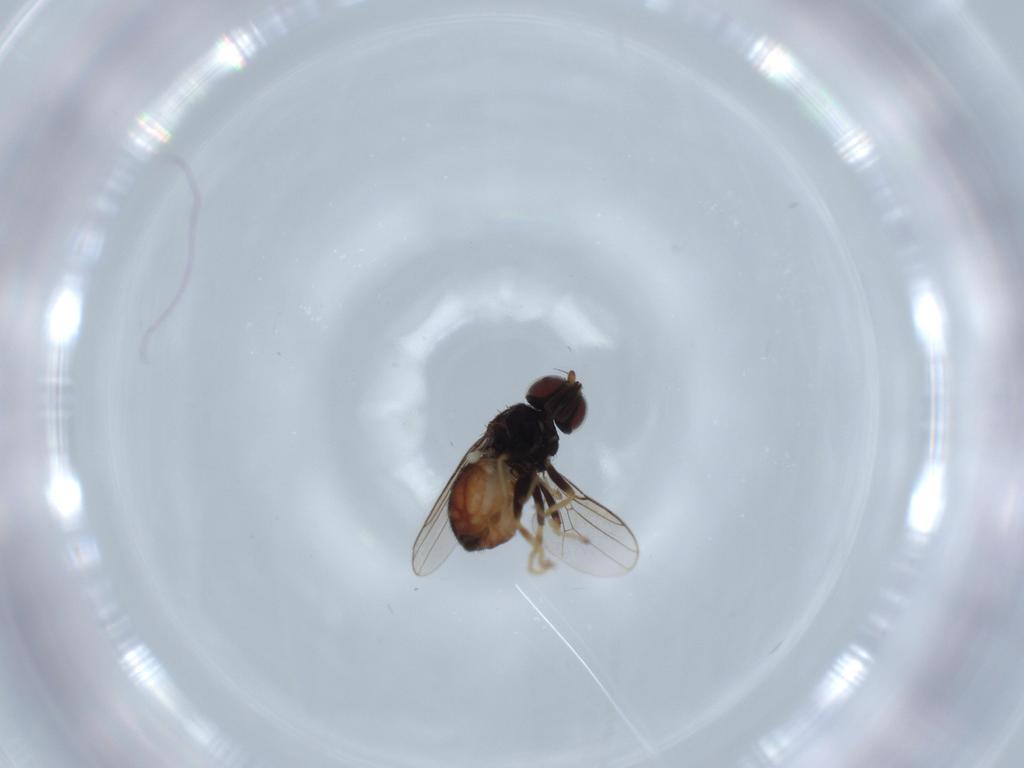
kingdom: Animalia
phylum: Arthropoda
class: Insecta
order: Diptera
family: Chloropidae
